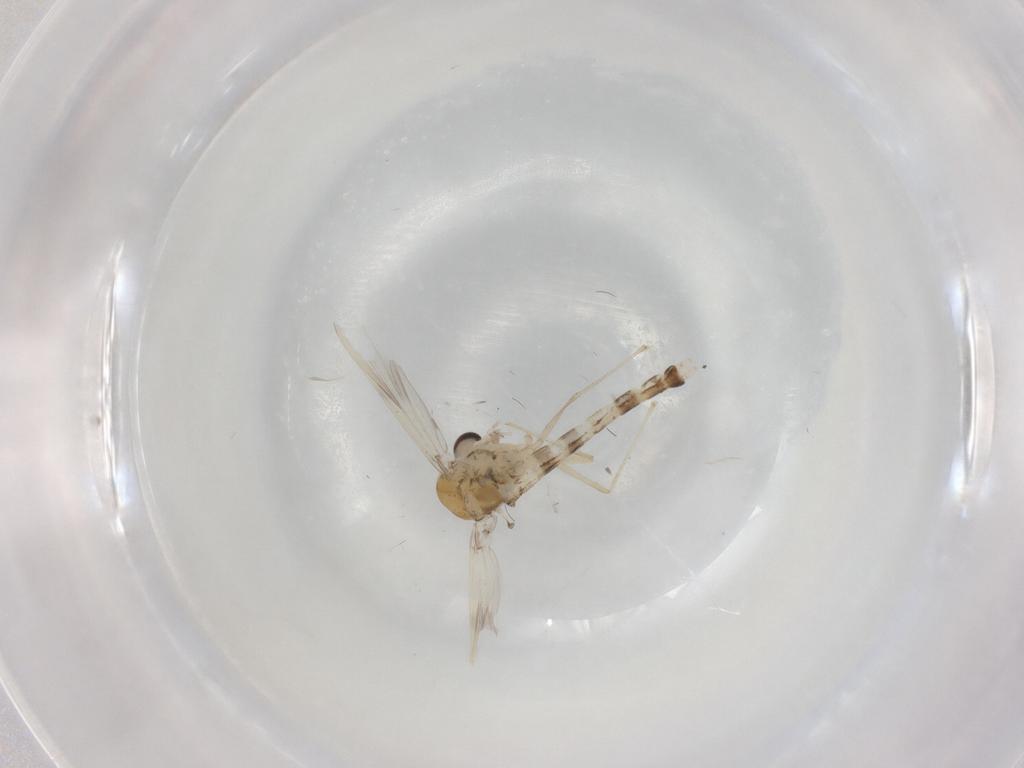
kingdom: Animalia
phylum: Arthropoda
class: Insecta
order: Diptera
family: Chironomidae
